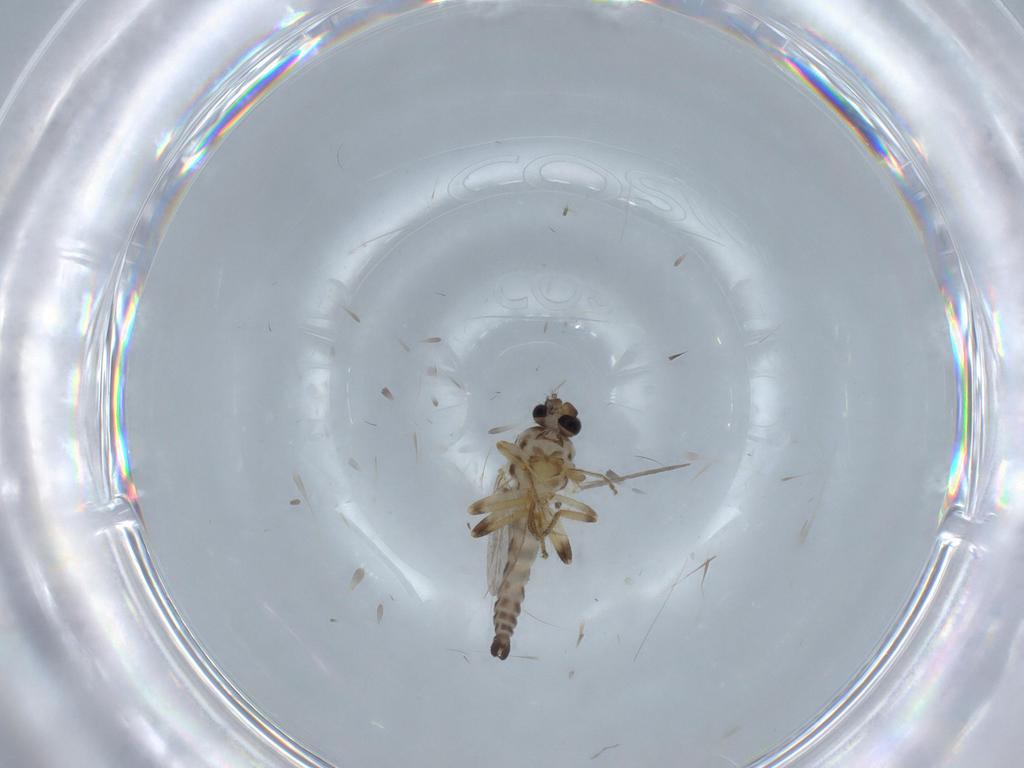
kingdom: Animalia
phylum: Arthropoda
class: Insecta
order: Diptera
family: Ceratopogonidae
